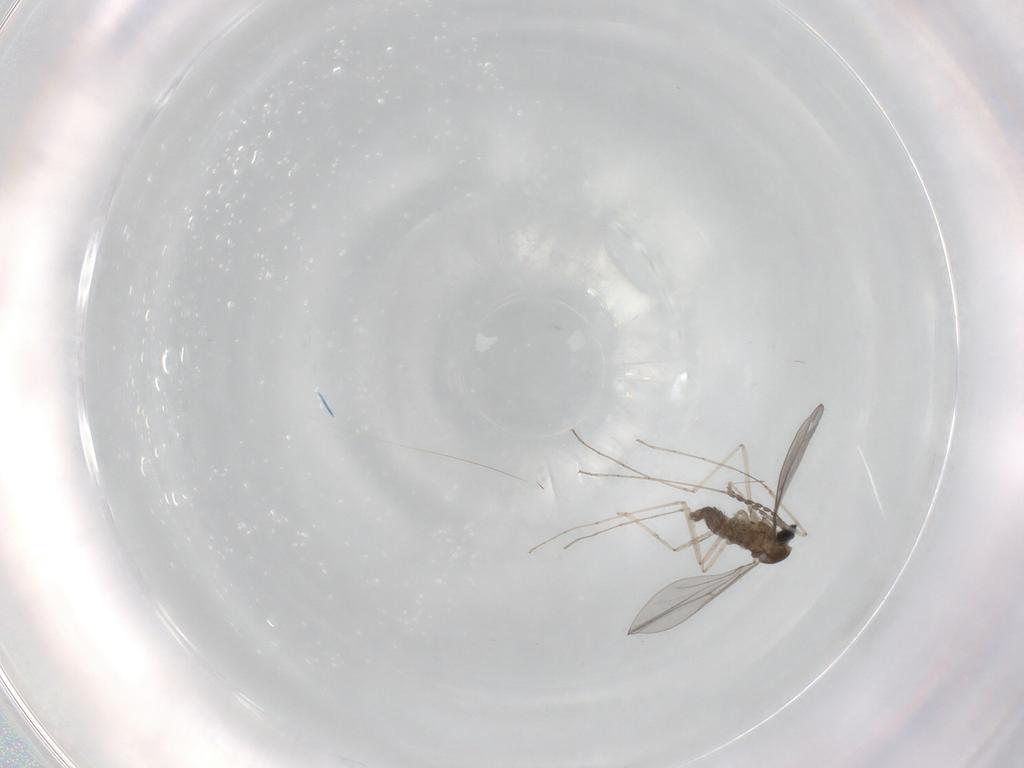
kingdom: Animalia
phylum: Arthropoda
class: Insecta
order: Diptera
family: Cecidomyiidae
